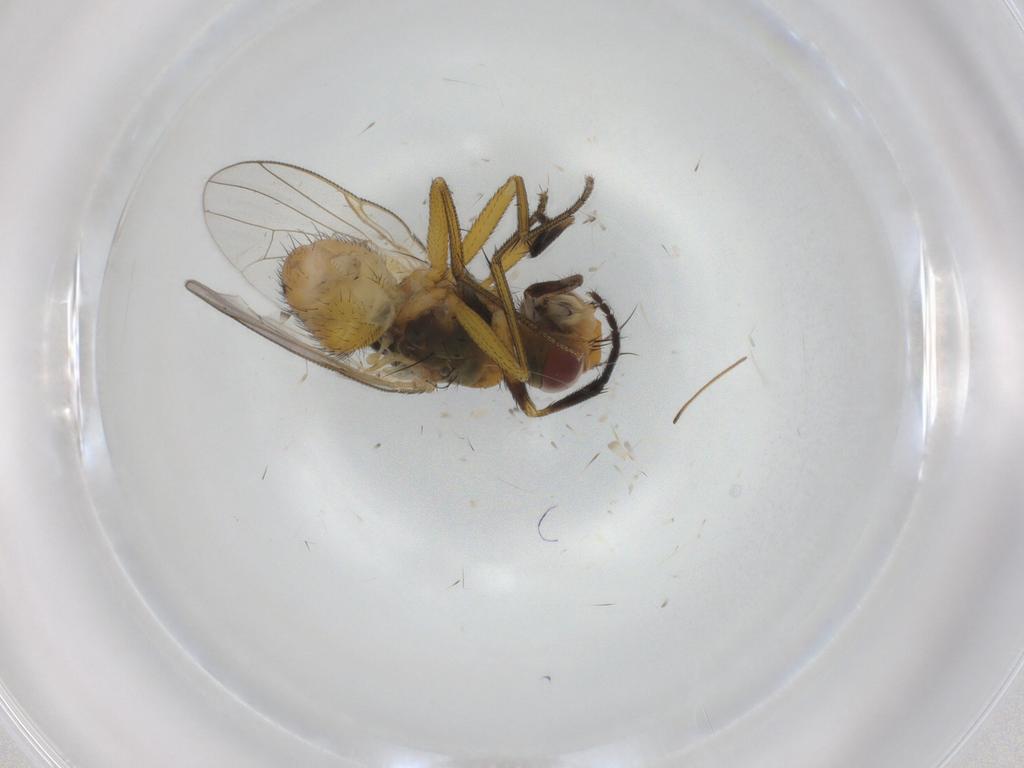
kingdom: Animalia
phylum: Arthropoda
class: Insecta
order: Diptera
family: Muscidae
